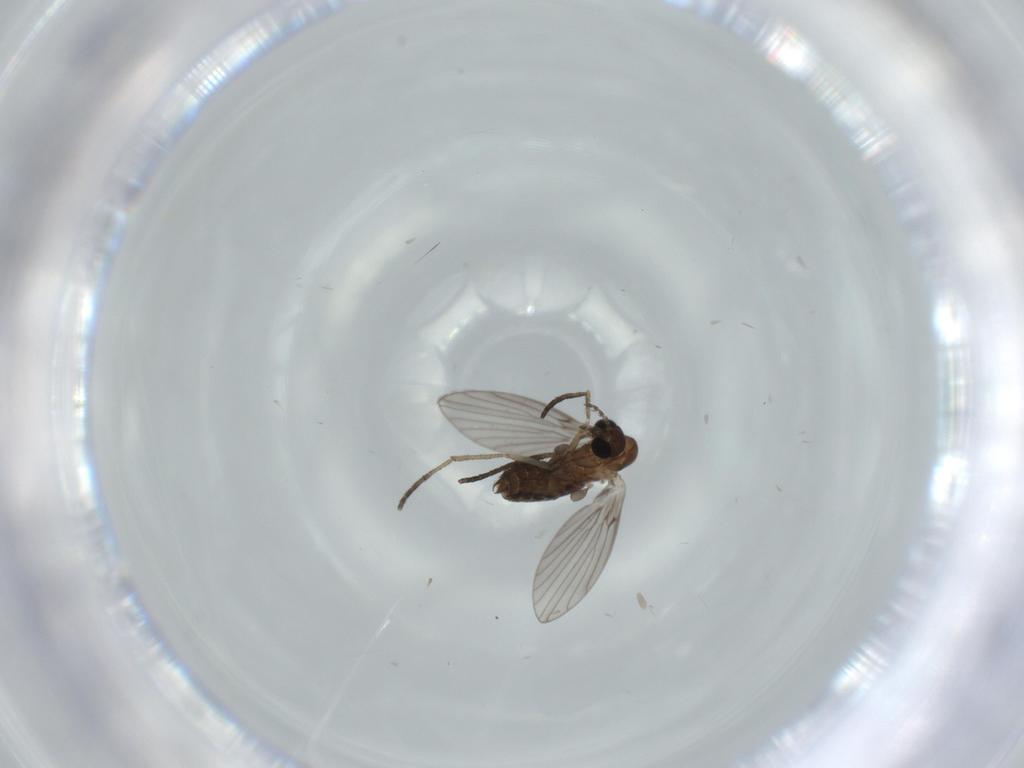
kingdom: Animalia
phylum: Arthropoda
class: Insecta
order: Diptera
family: Psychodidae
